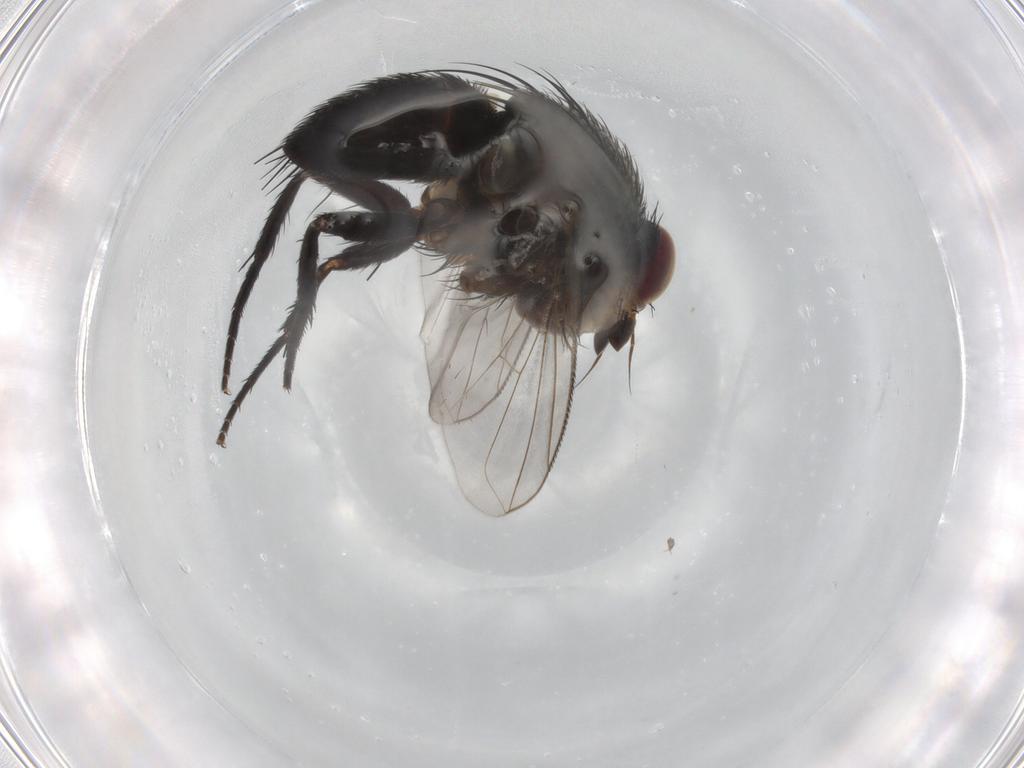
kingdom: Animalia
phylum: Arthropoda
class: Insecta
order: Diptera
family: Tachinidae
